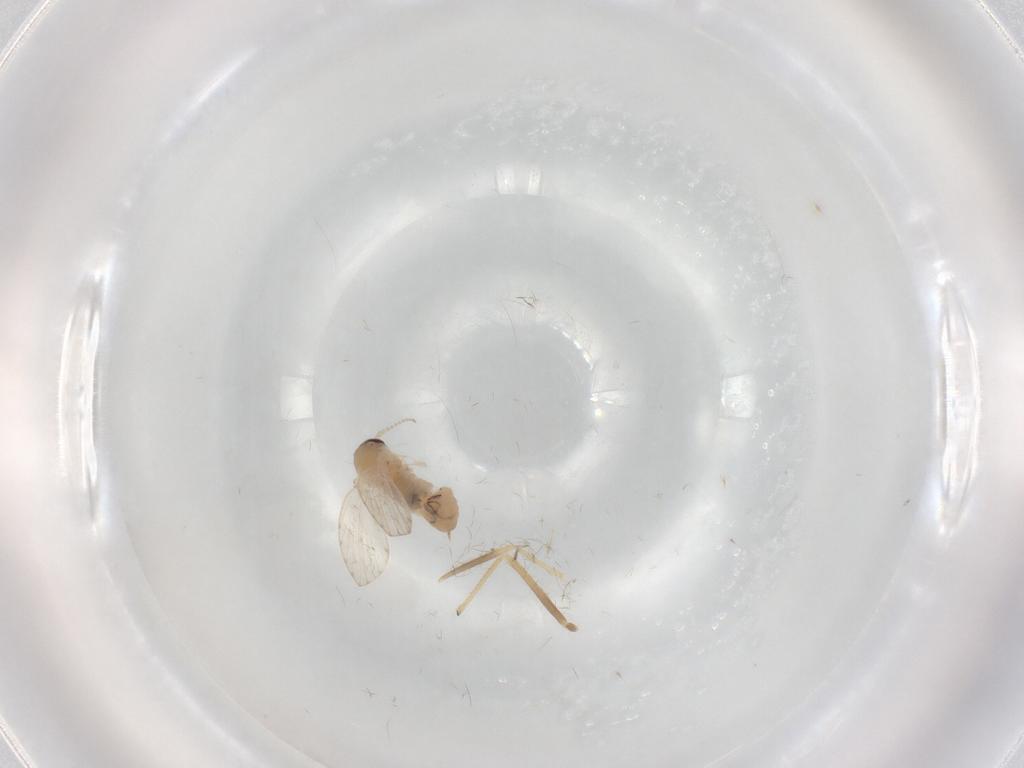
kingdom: Animalia
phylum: Arthropoda
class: Insecta
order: Diptera
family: Psychodidae
